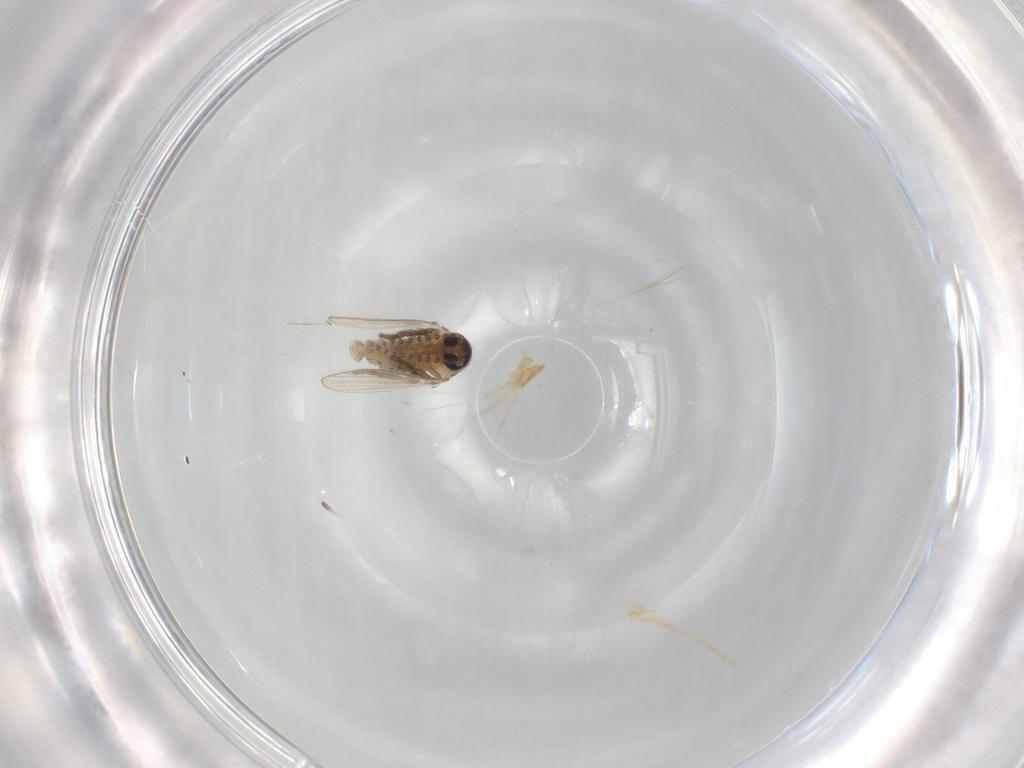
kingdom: Animalia
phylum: Arthropoda
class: Insecta
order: Diptera
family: Psychodidae
